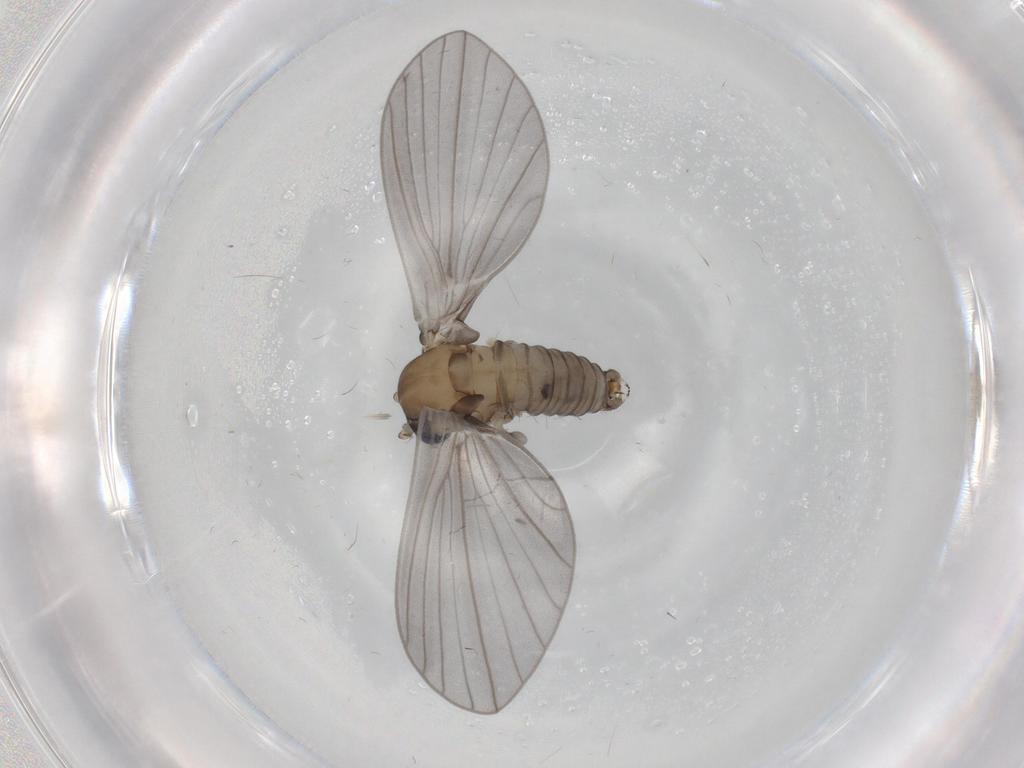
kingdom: Animalia
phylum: Arthropoda
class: Insecta
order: Diptera
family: Psychodidae
